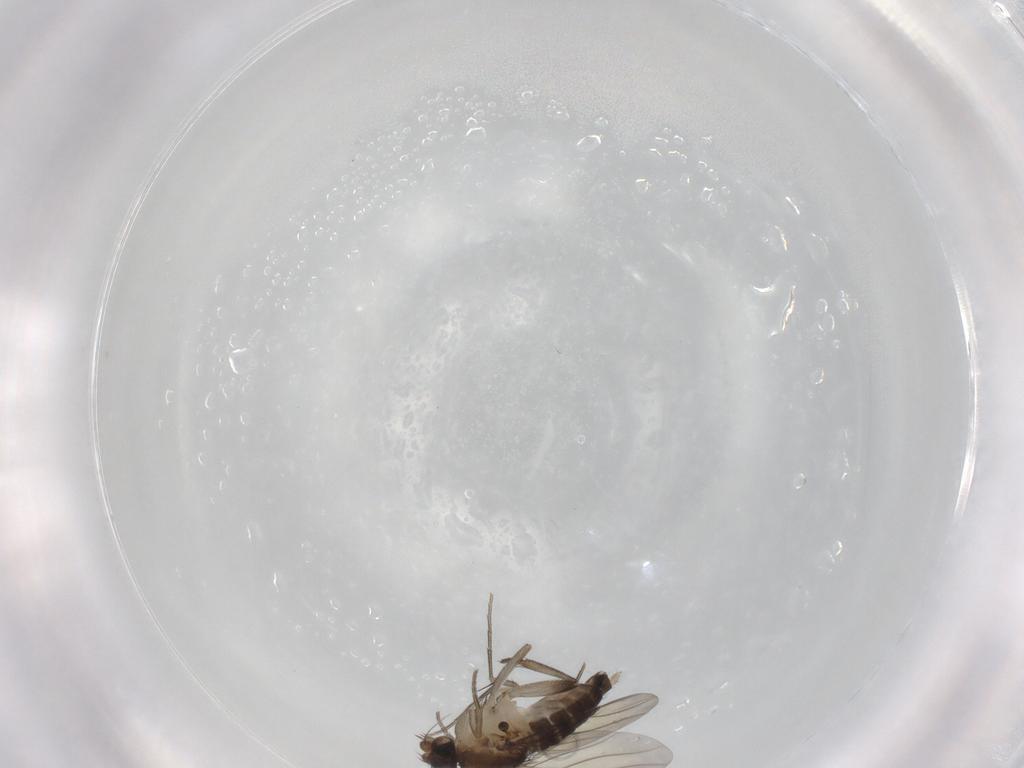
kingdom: Animalia
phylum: Arthropoda
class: Insecta
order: Diptera
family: Phoridae
